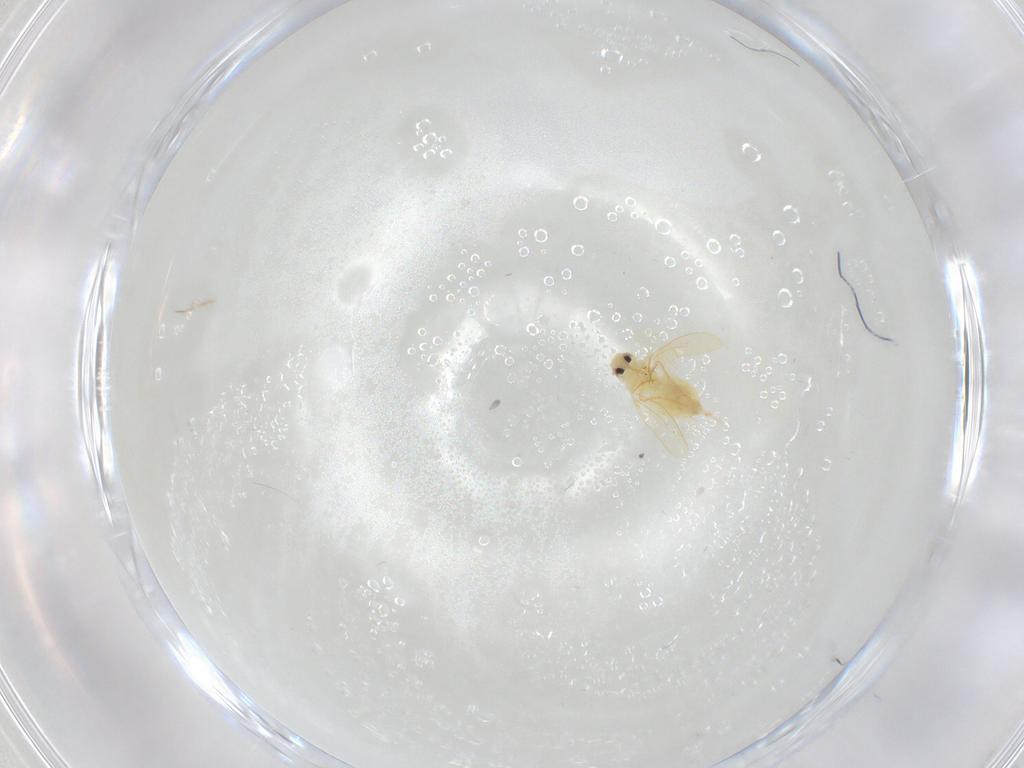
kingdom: Animalia
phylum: Arthropoda
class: Insecta
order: Hemiptera
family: Aleyrodidae
